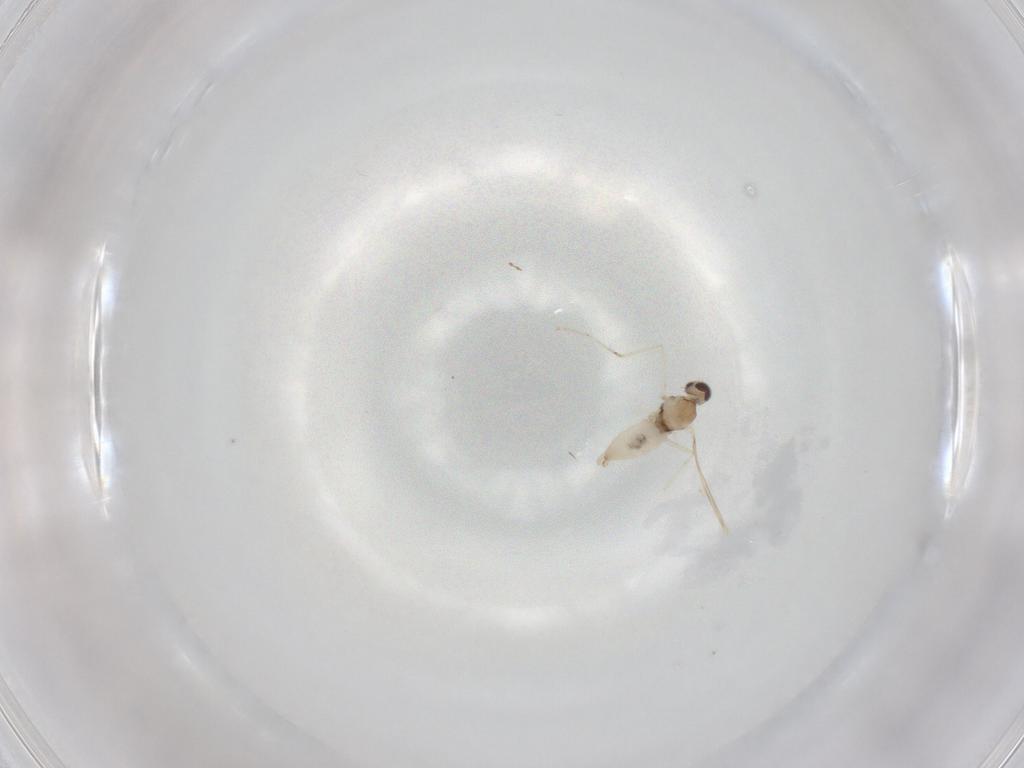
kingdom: Animalia
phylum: Arthropoda
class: Insecta
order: Diptera
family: Cecidomyiidae
